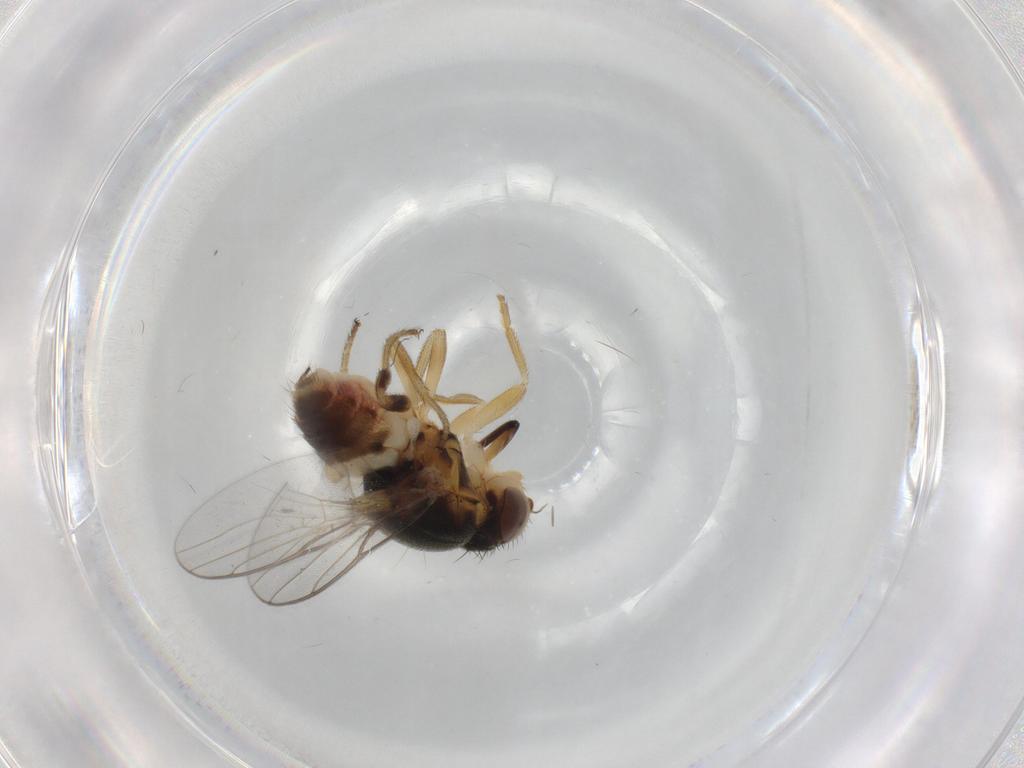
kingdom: Animalia
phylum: Arthropoda
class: Insecta
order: Diptera
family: Chloropidae
